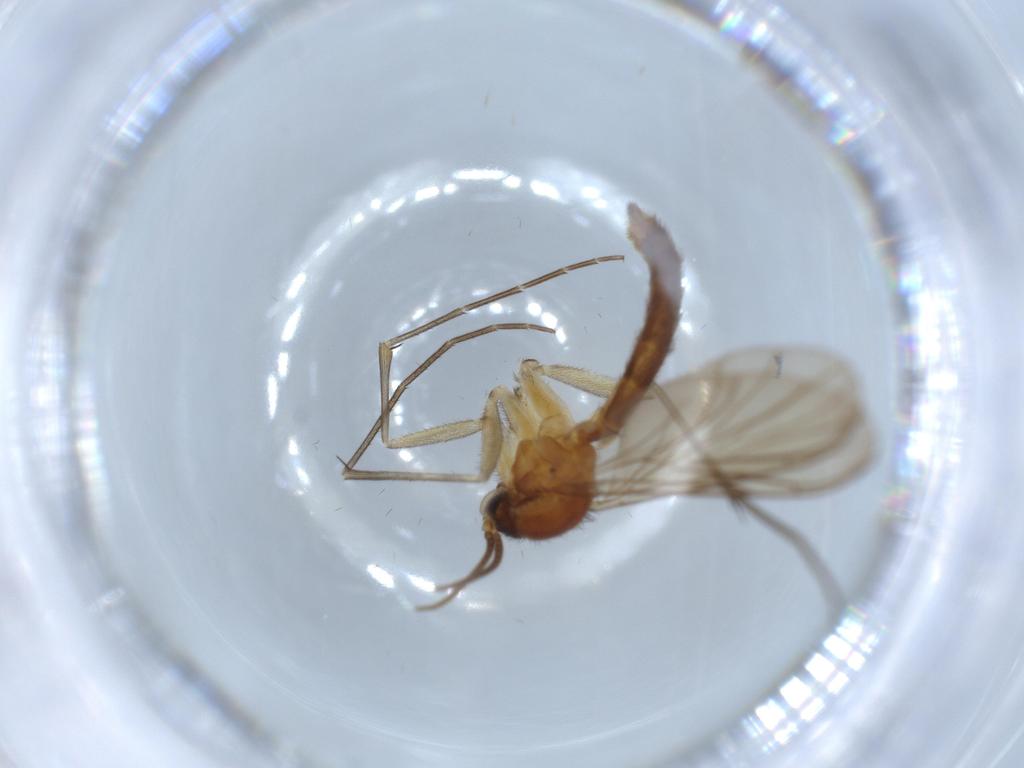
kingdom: Animalia
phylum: Arthropoda
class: Insecta
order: Diptera
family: Keroplatidae
